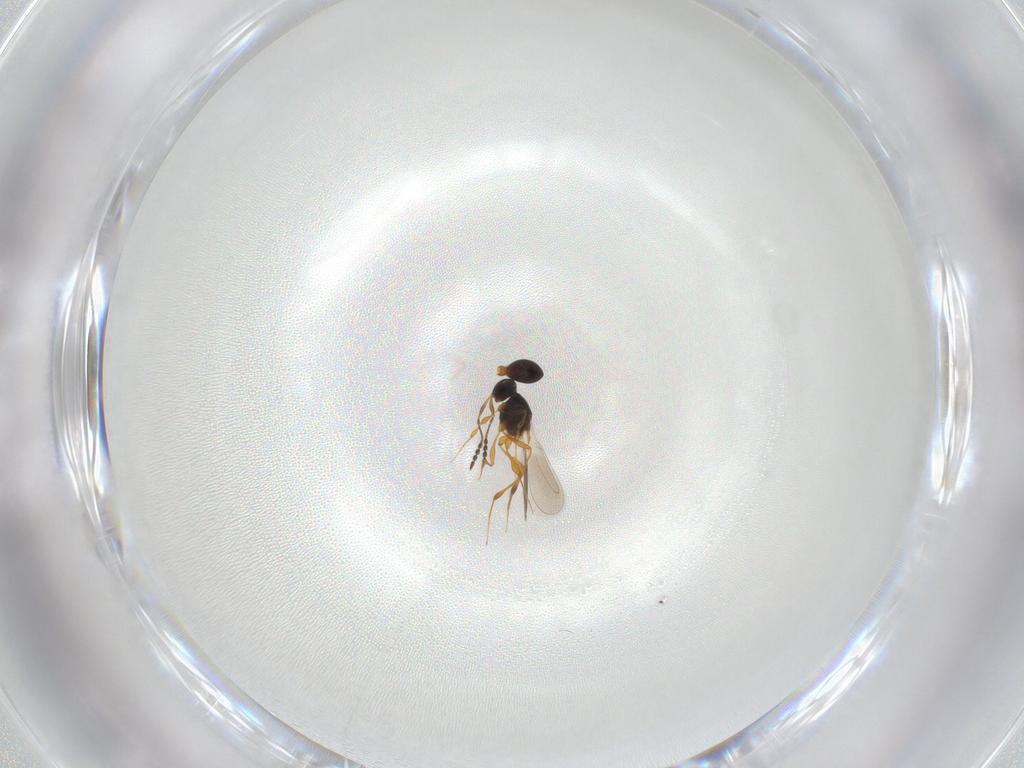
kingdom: Animalia
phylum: Arthropoda
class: Insecta
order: Hymenoptera
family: Platygastridae
